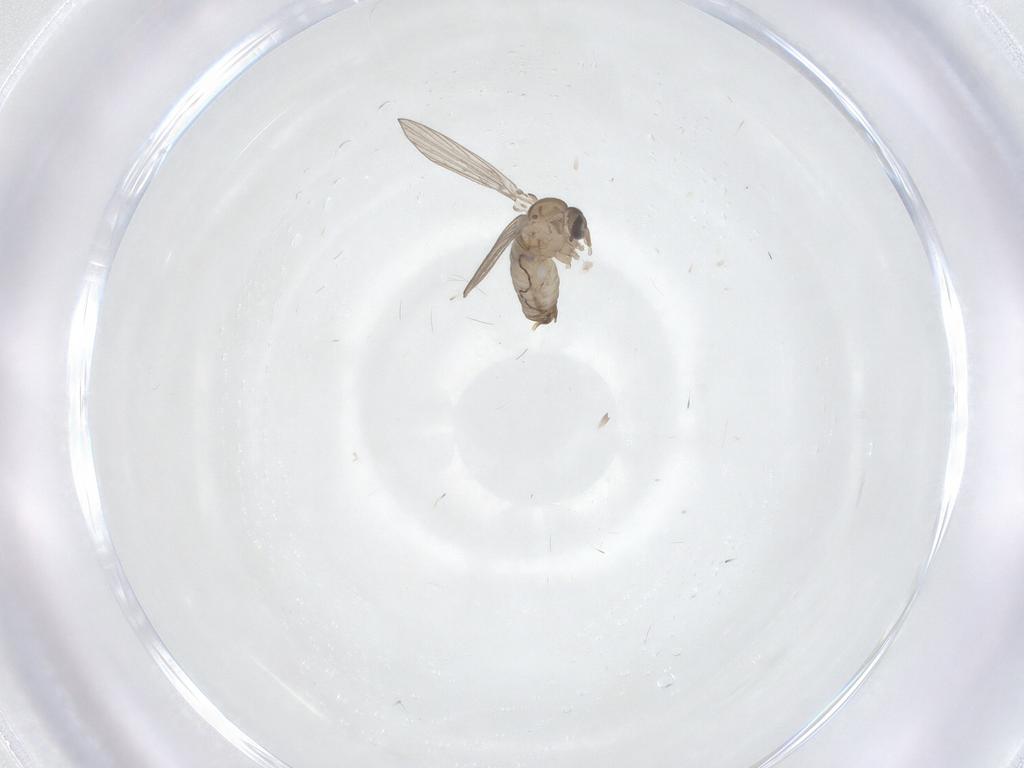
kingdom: Animalia
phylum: Arthropoda
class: Insecta
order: Diptera
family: Psychodidae
